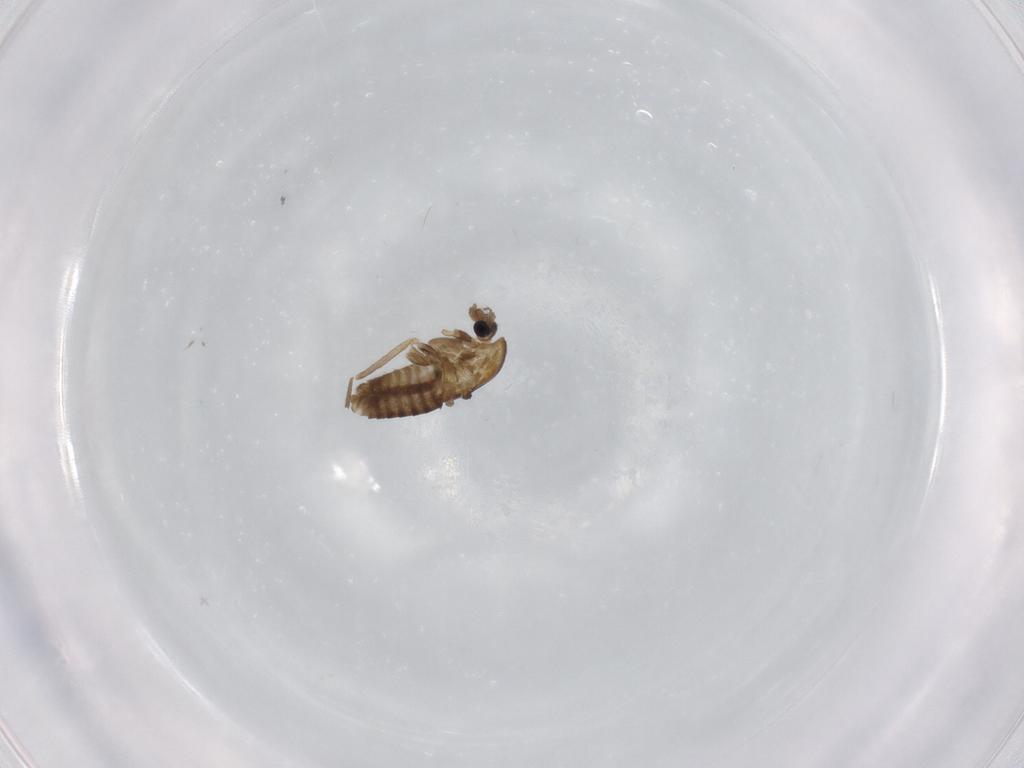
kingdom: Animalia
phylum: Arthropoda
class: Insecta
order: Diptera
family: Chironomidae
